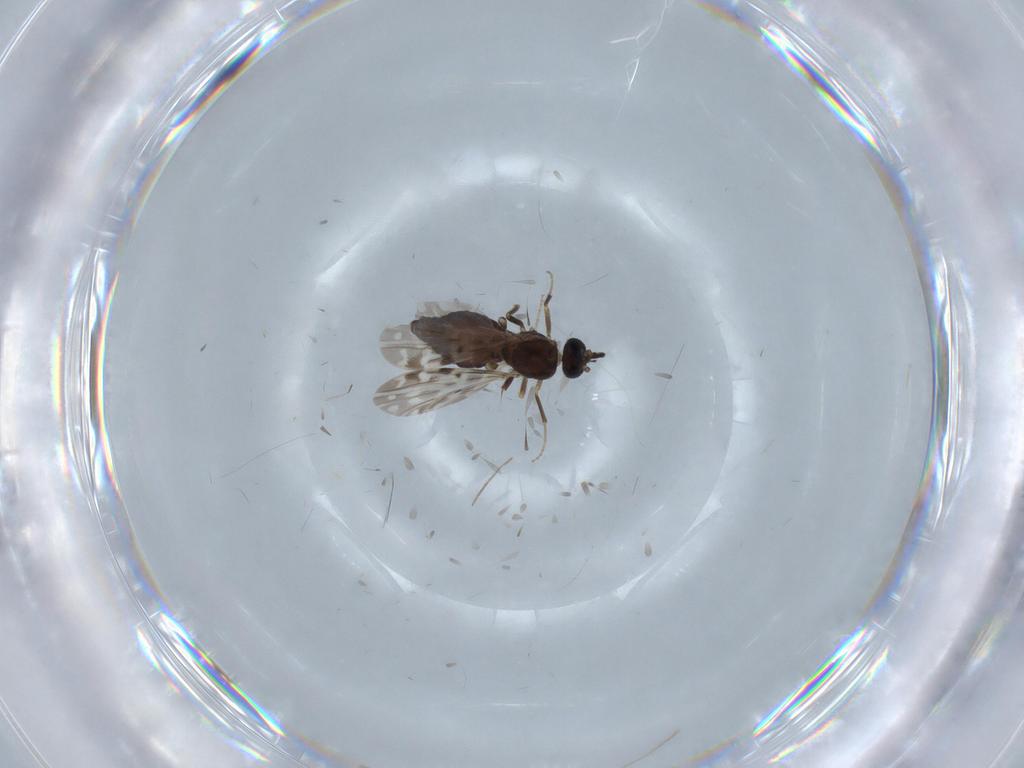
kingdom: Animalia
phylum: Arthropoda
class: Insecta
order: Diptera
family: Ceratopogonidae
